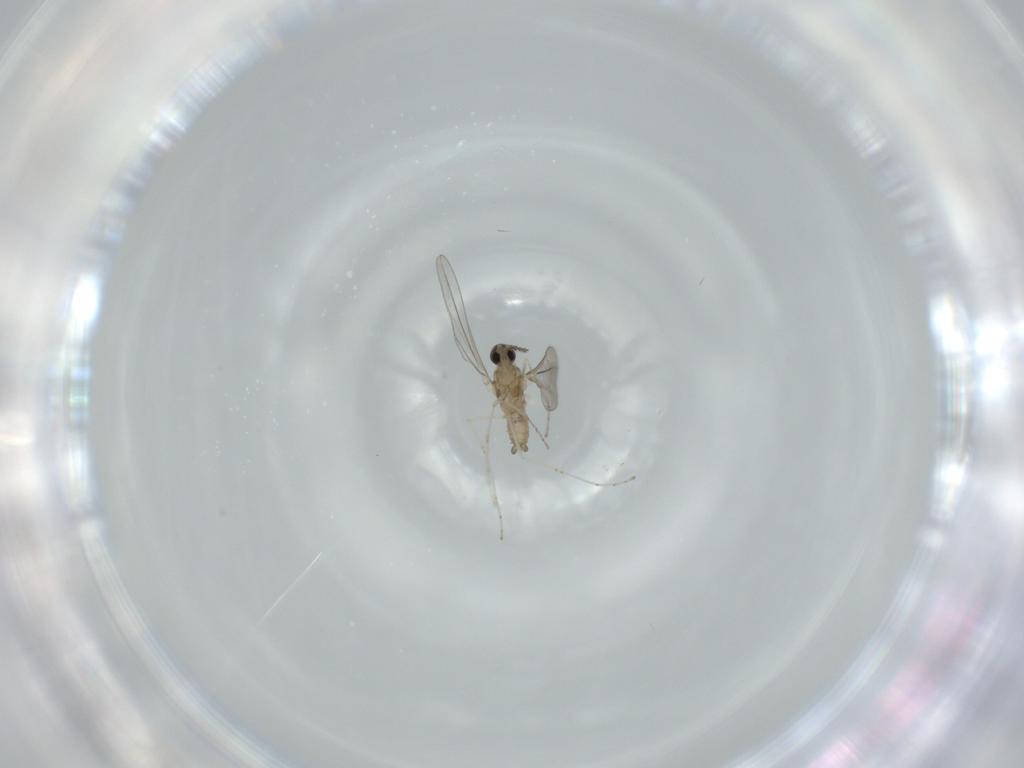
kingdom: Animalia
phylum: Arthropoda
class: Insecta
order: Diptera
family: Cecidomyiidae
